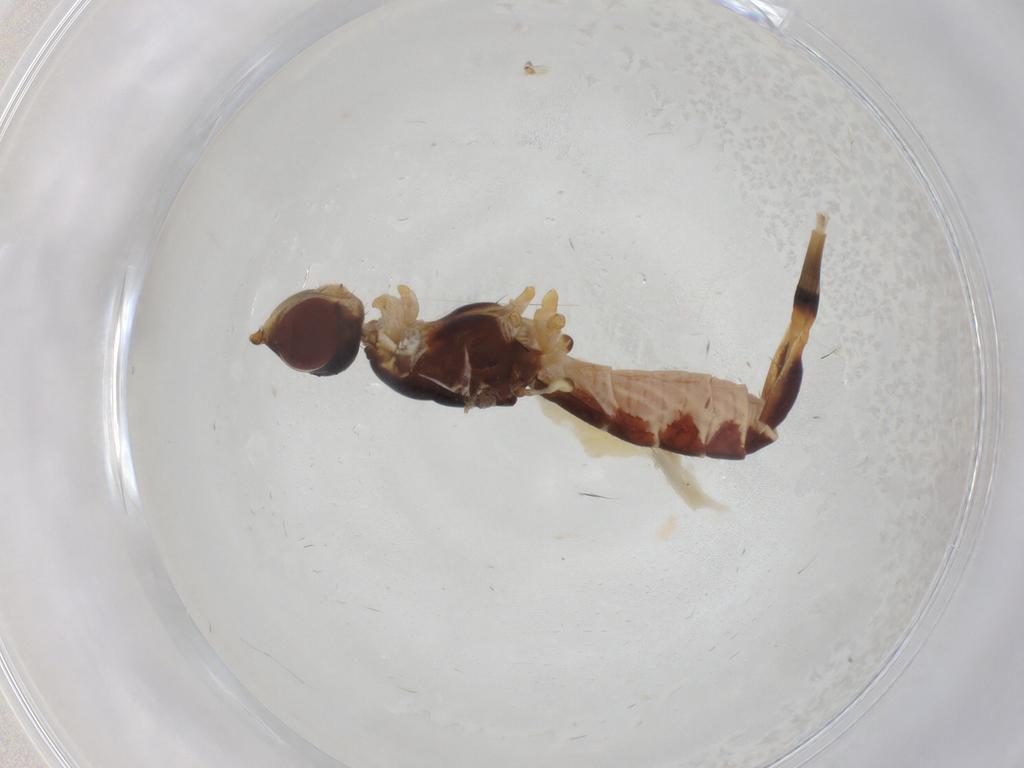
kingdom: Animalia
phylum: Arthropoda
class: Insecta
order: Diptera
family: Micropezidae
